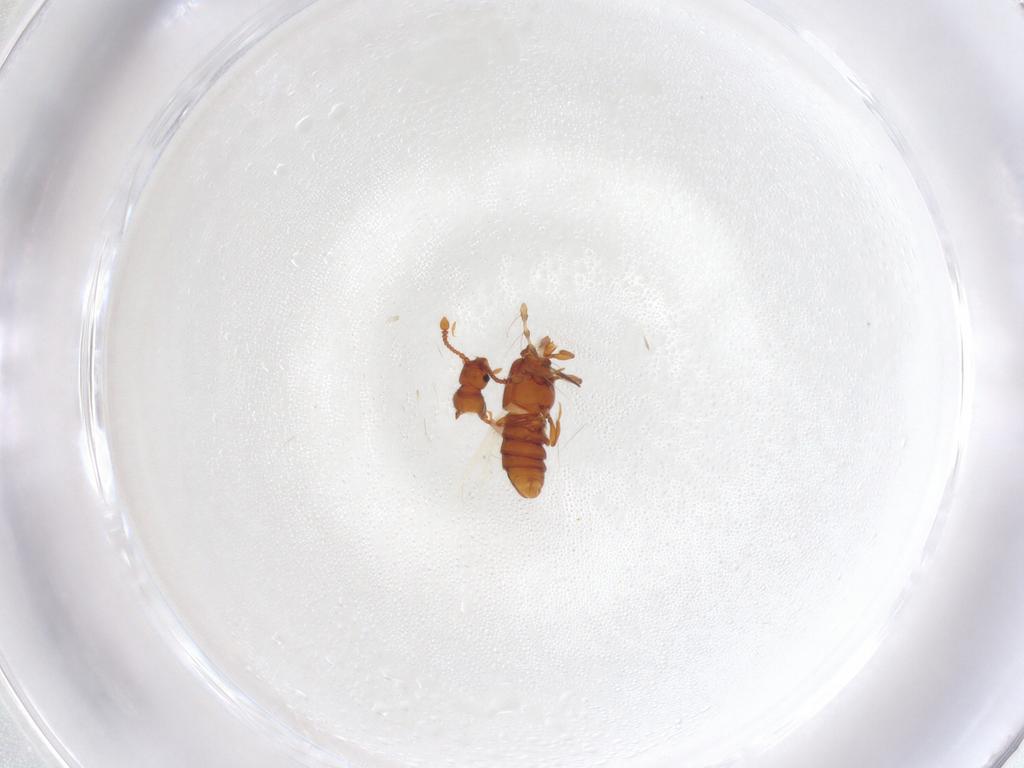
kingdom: Animalia
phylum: Arthropoda
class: Insecta
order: Coleoptera
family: Staphylinidae
